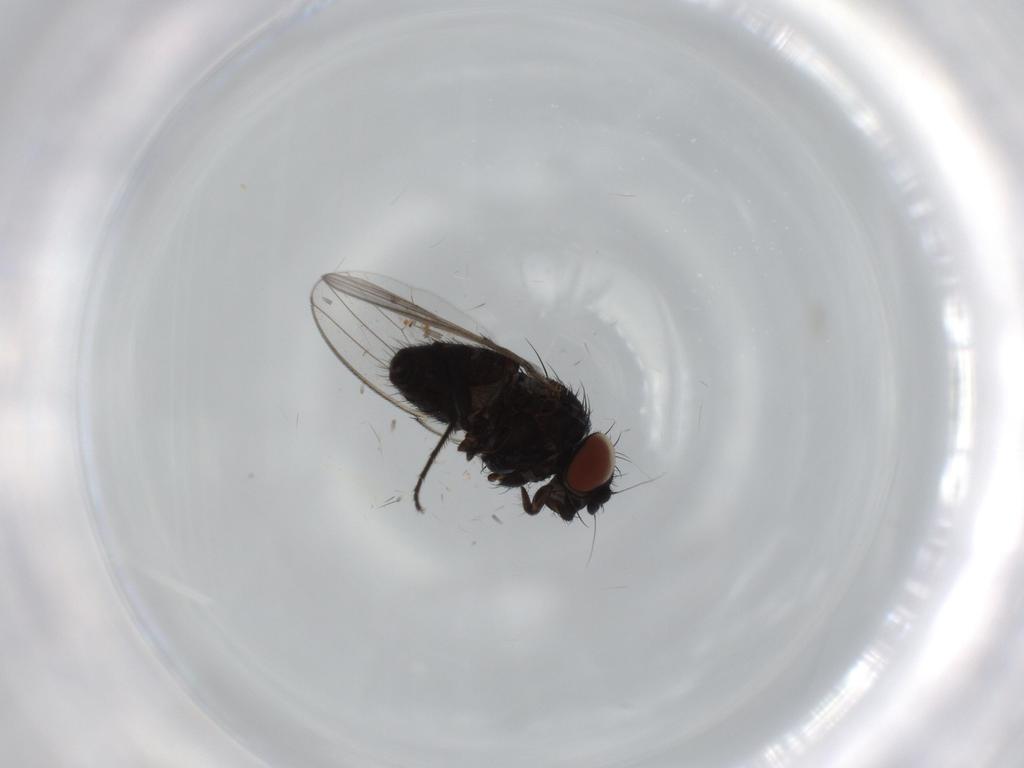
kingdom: Animalia
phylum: Arthropoda
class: Insecta
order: Diptera
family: Milichiidae
